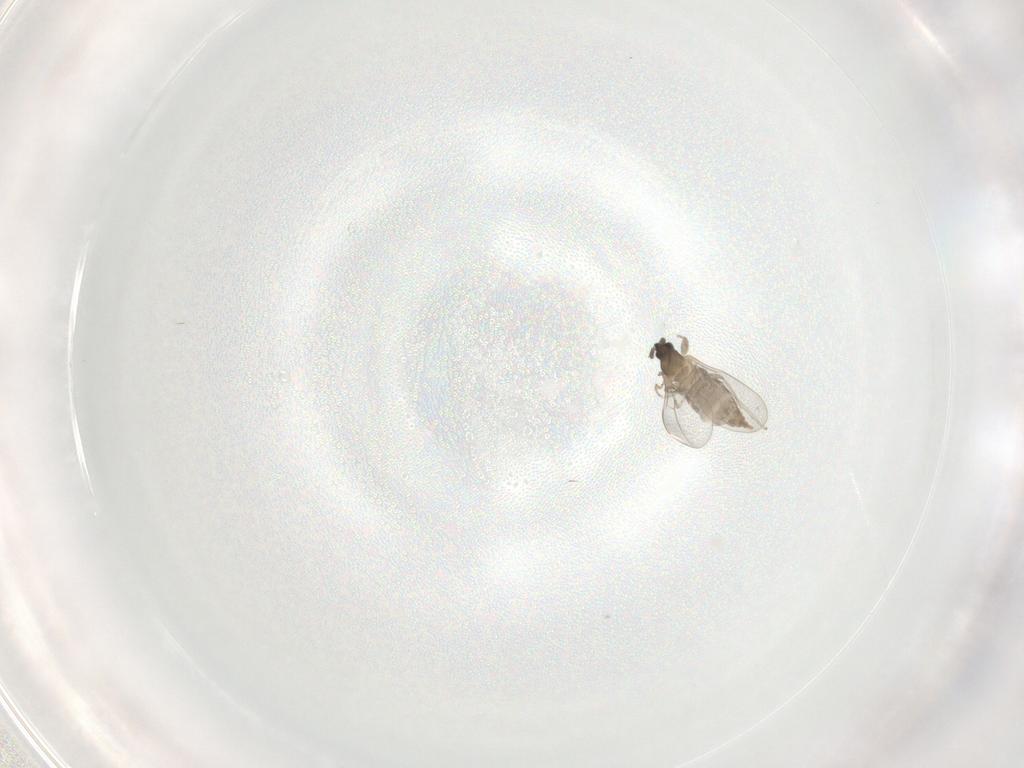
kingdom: Animalia
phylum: Arthropoda
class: Insecta
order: Diptera
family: Cecidomyiidae
